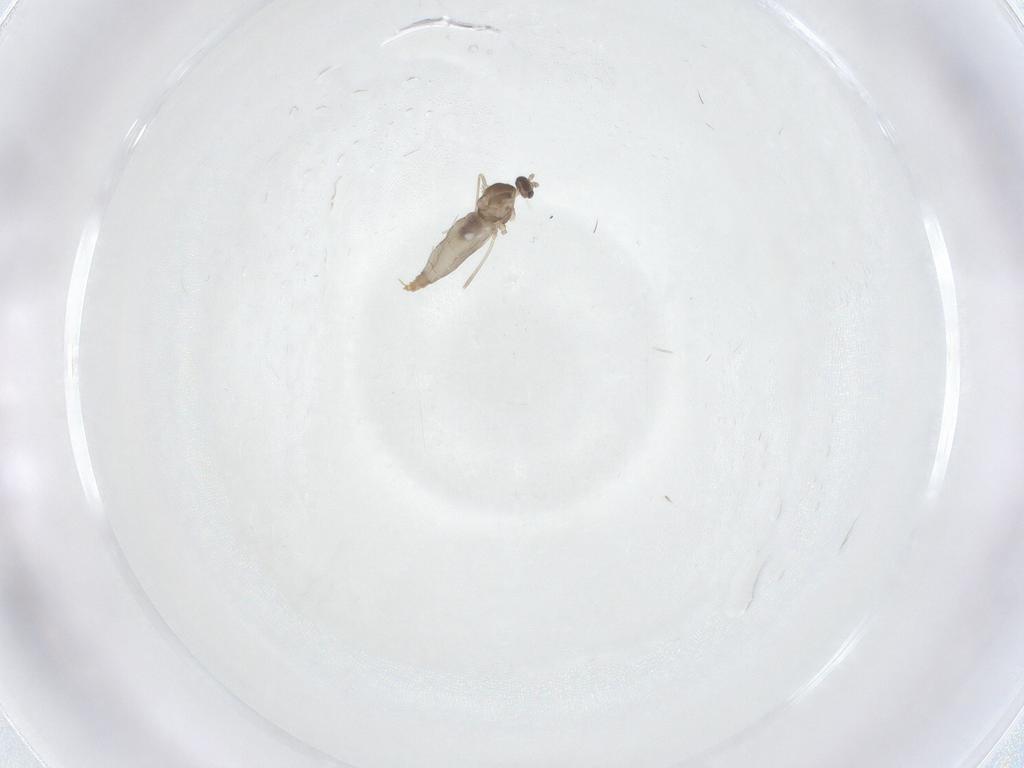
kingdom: Animalia
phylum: Arthropoda
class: Insecta
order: Diptera
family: Cecidomyiidae
